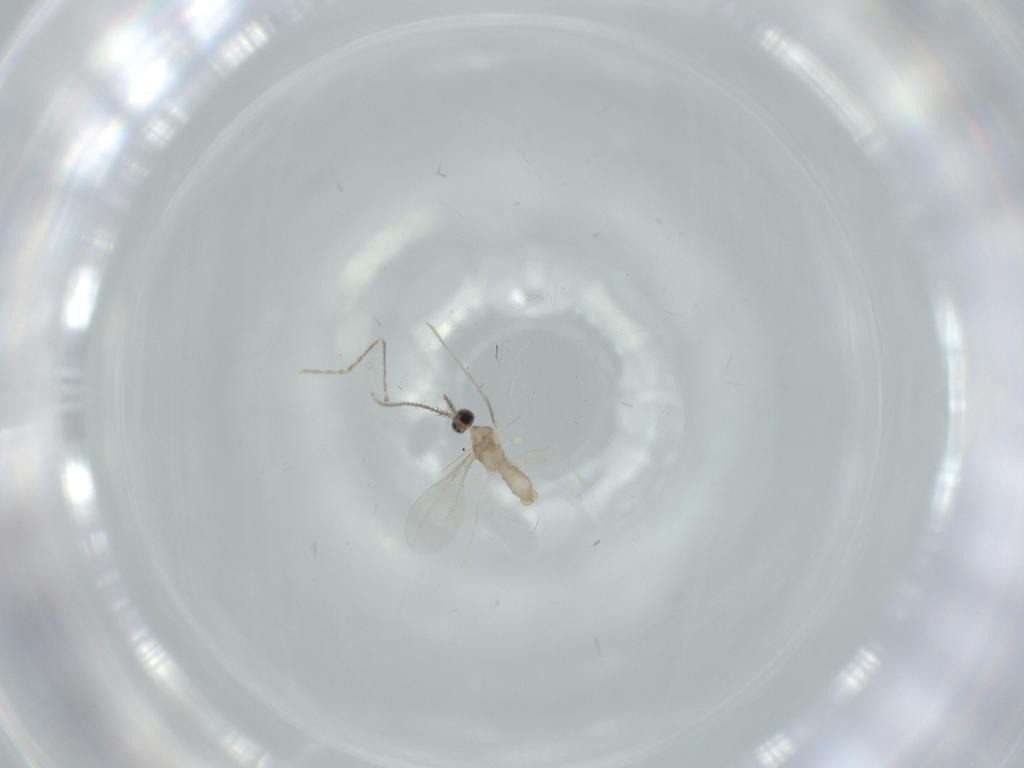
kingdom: Animalia
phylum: Arthropoda
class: Insecta
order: Diptera
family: Cecidomyiidae
